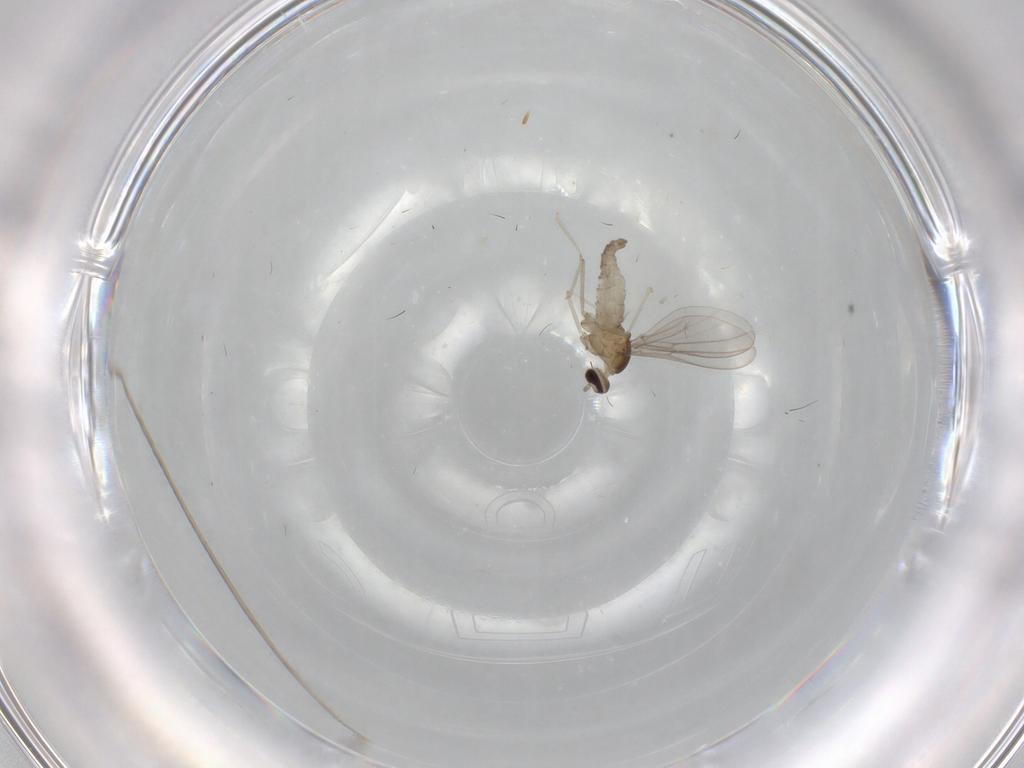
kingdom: Animalia
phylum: Arthropoda
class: Insecta
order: Diptera
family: Cecidomyiidae
